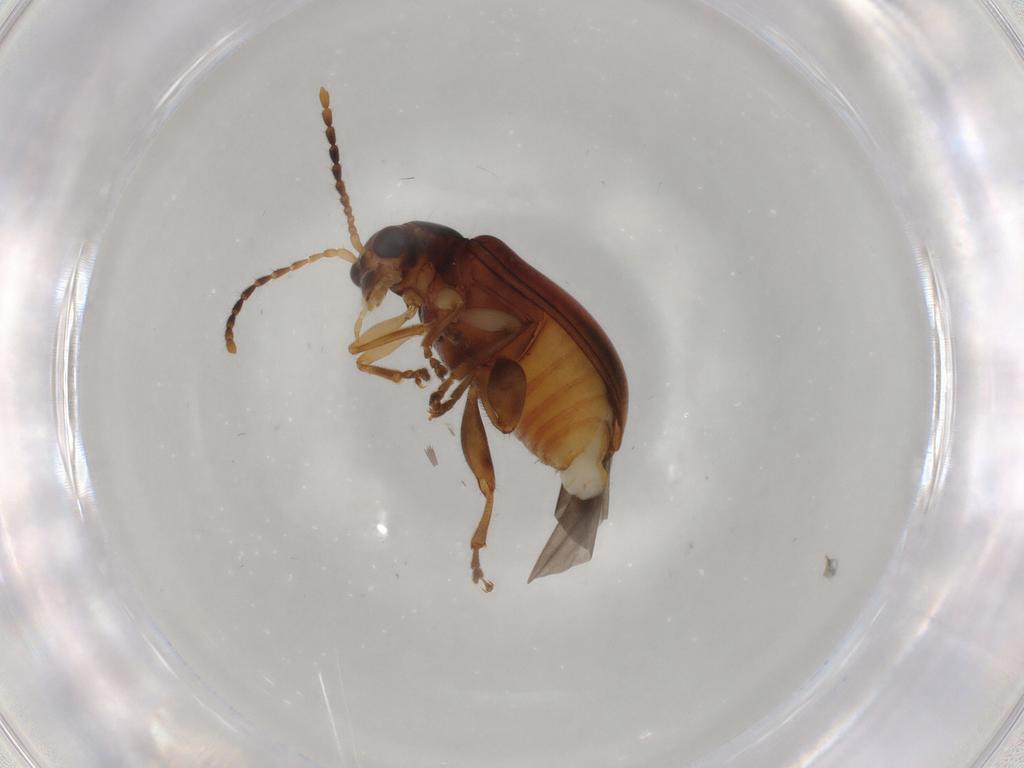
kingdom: Animalia
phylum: Arthropoda
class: Insecta
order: Coleoptera
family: Chrysomelidae
